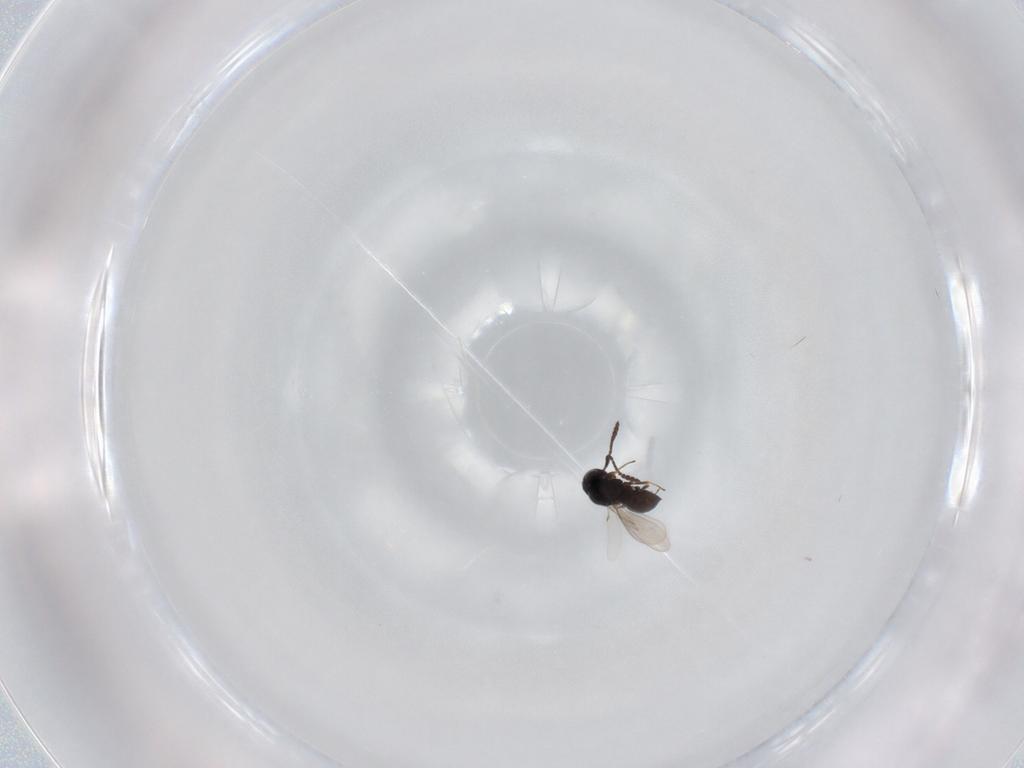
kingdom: Animalia
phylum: Arthropoda
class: Insecta
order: Hymenoptera
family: Scelionidae
